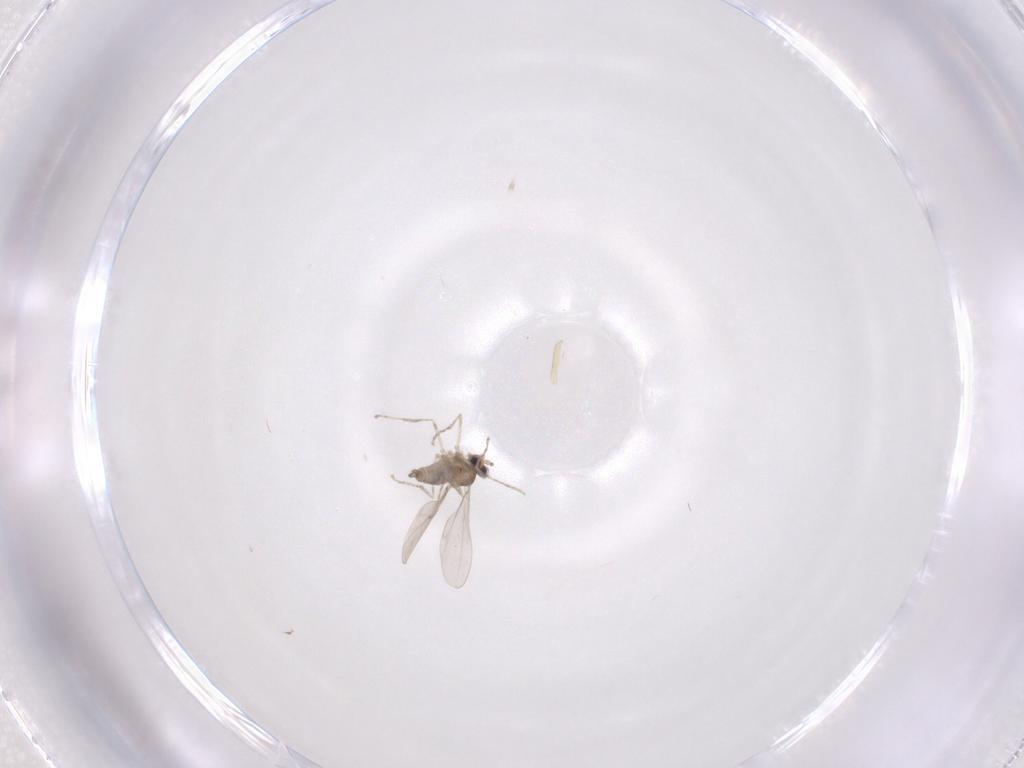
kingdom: Animalia
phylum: Arthropoda
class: Insecta
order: Diptera
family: Cecidomyiidae
